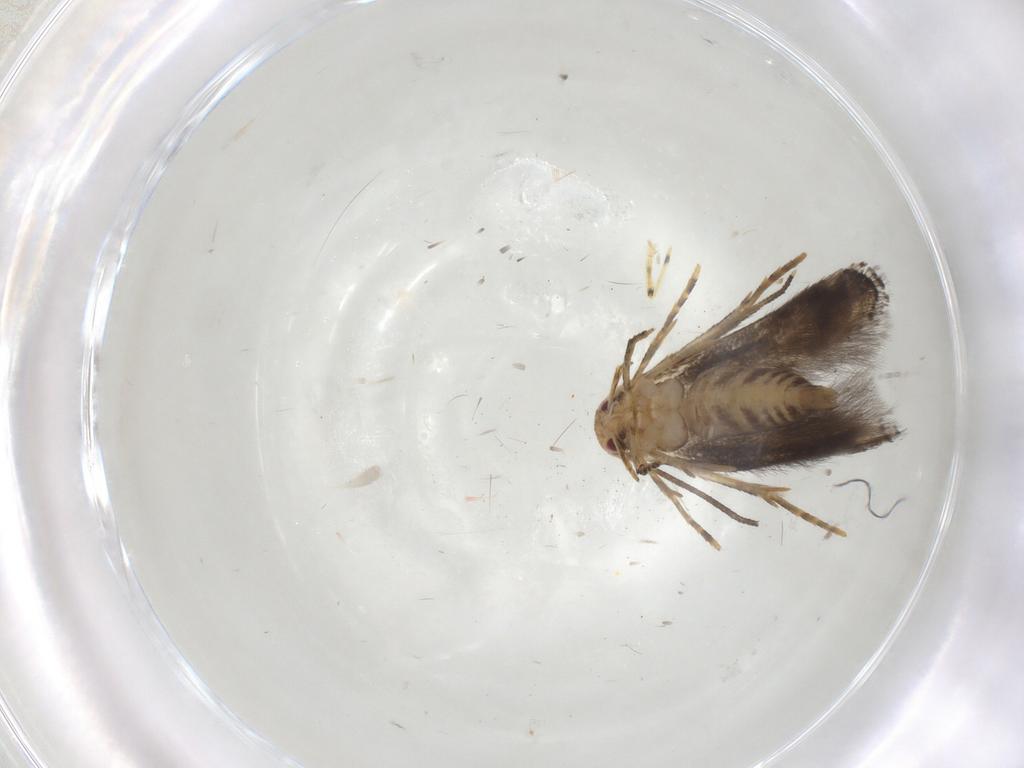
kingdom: Animalia
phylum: Arthropoda
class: Insecta
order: Lepidoptera
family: Momphidae
